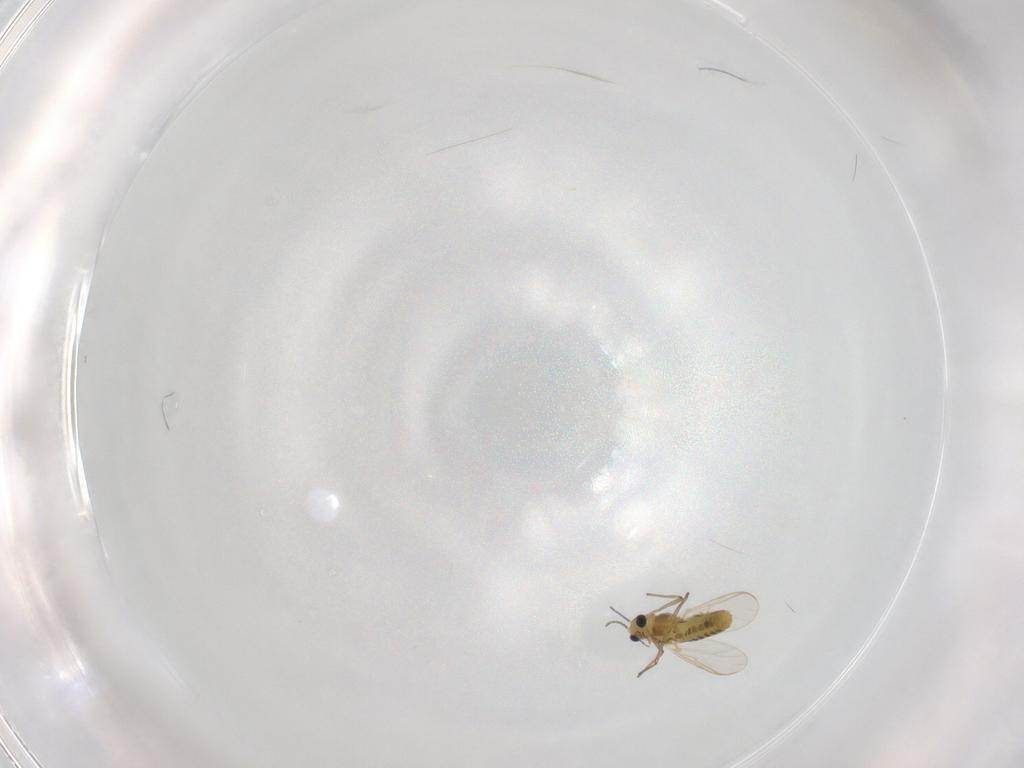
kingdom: Animalia
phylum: Arthropoda
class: Insecta
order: Diptera
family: Chironomidae
